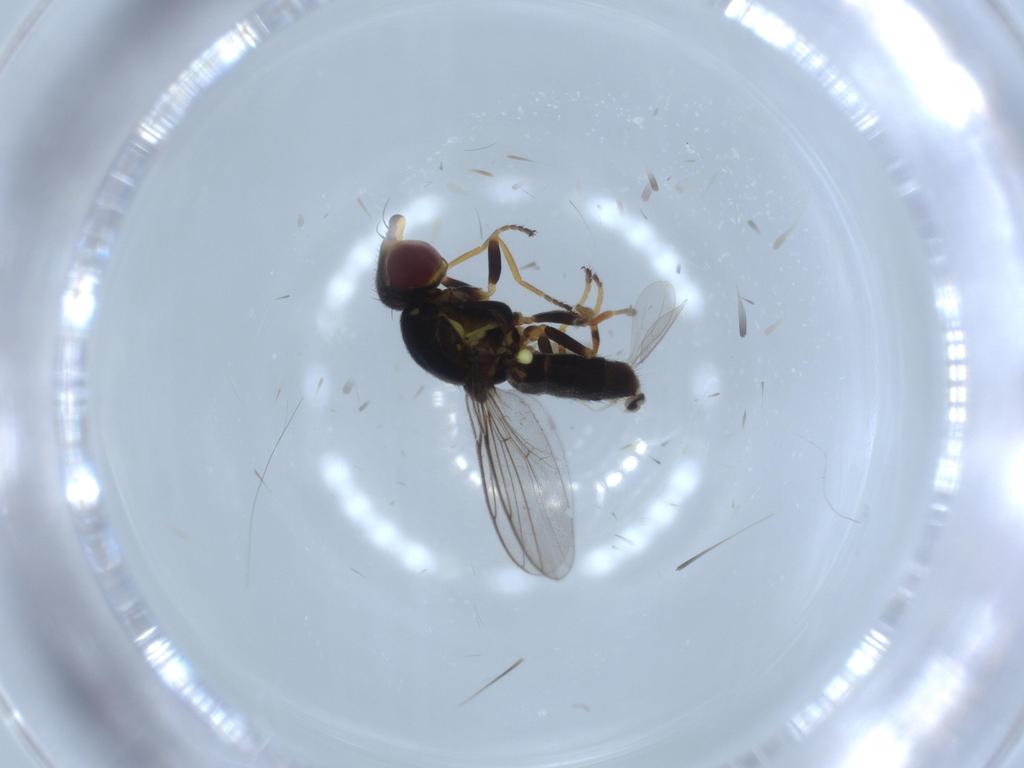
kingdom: Animalia
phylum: Arthropoda
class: Insecta
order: Diptera
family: Chloropidae
